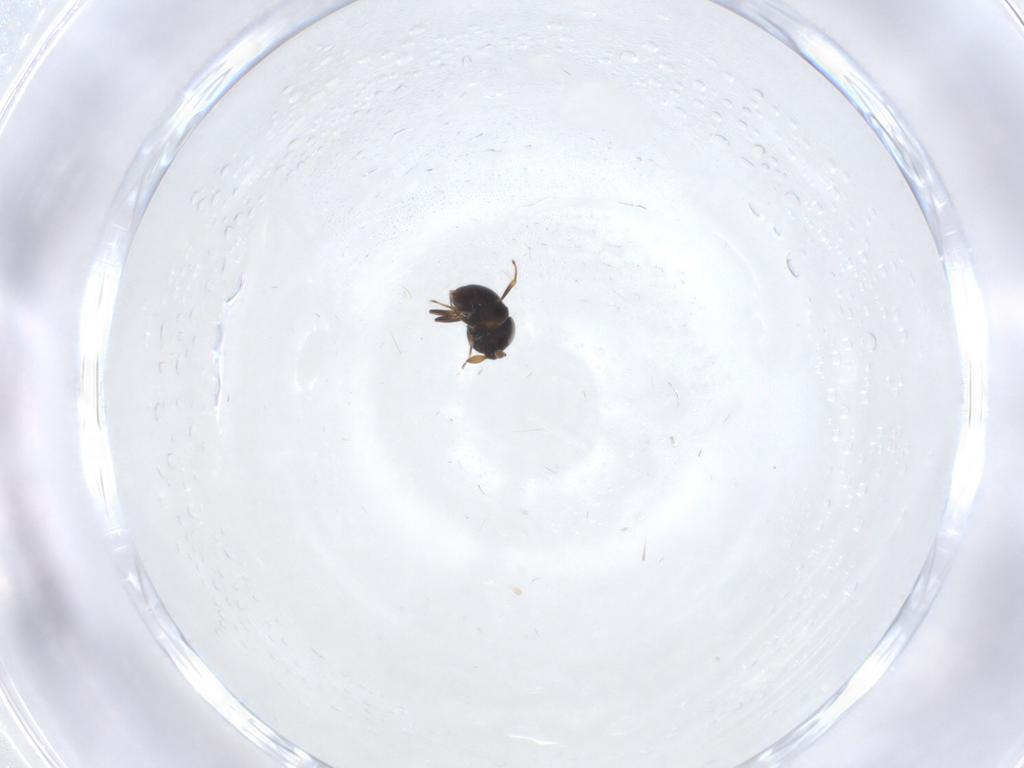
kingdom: Animalia
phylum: Arthropoda
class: Insecta
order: Hymenoptera
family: Scelionidae
